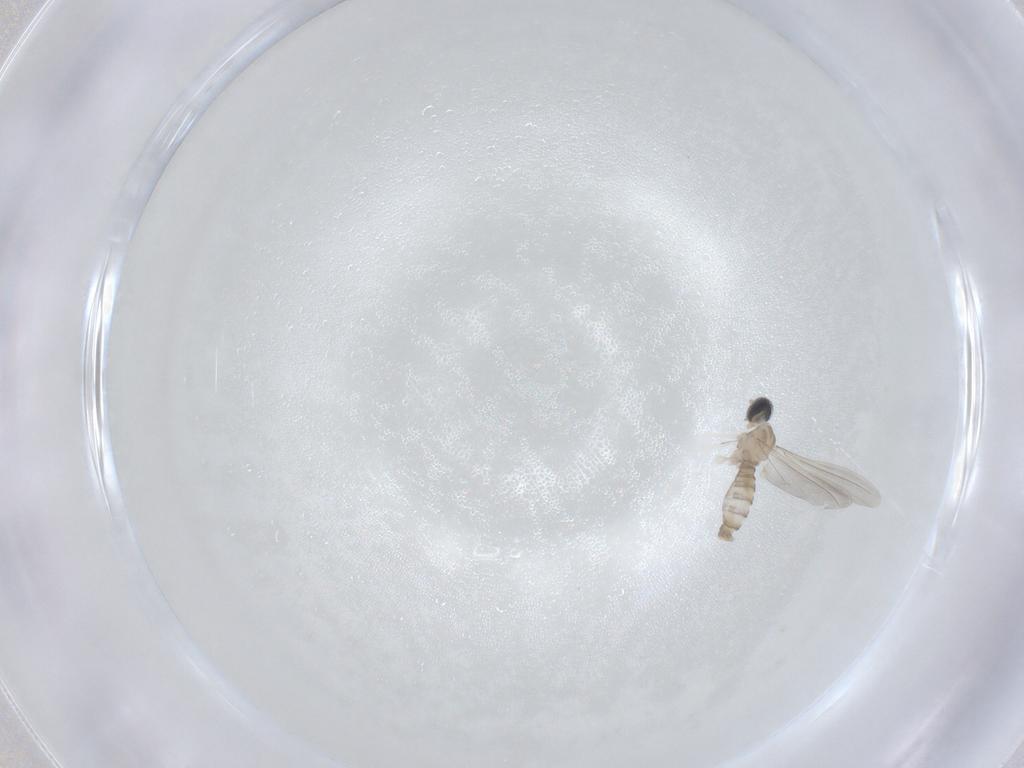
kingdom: Animalia
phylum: Arthropoda
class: Insecta
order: Diptera
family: Cecidomyiidae
